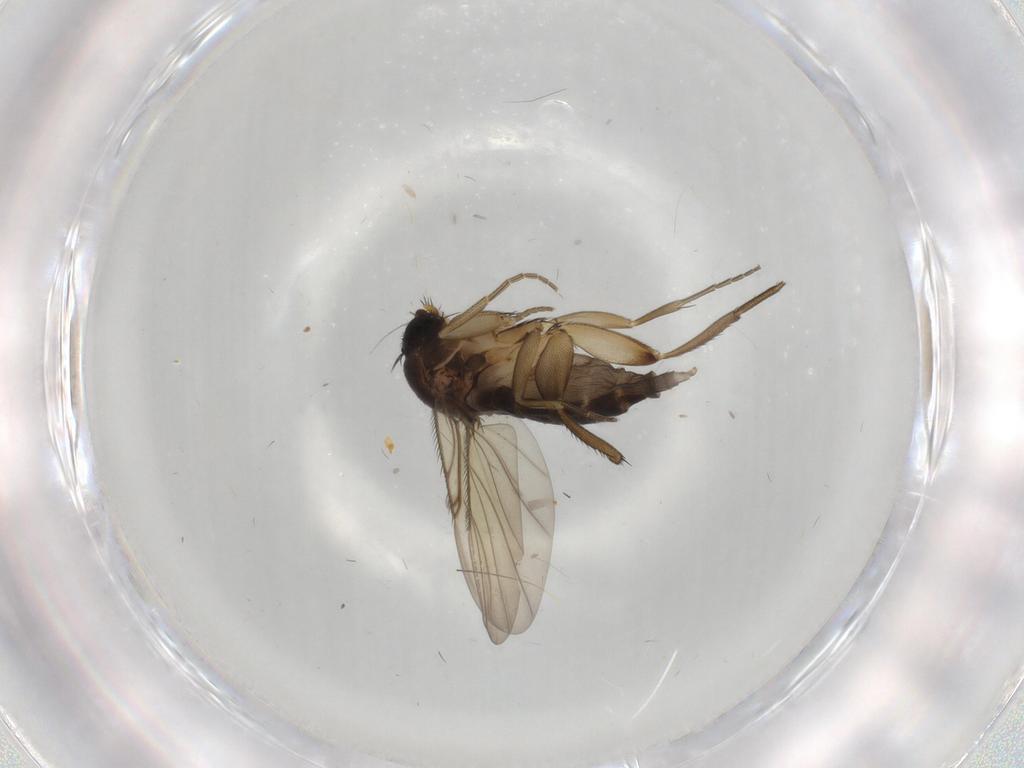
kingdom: Animalia
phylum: Arthropoda
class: Insecta
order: Diptera
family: Phoridae
